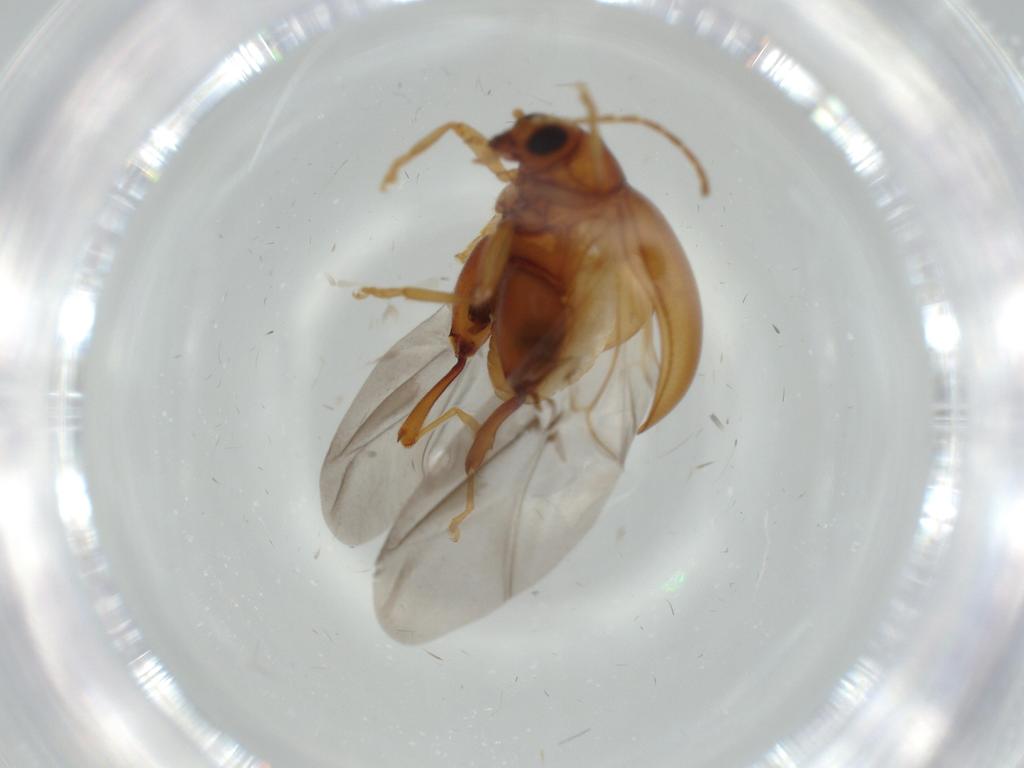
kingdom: Animalia
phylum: Arthropoda
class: Insecta
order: Coleoptera
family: Chrysomelidae
